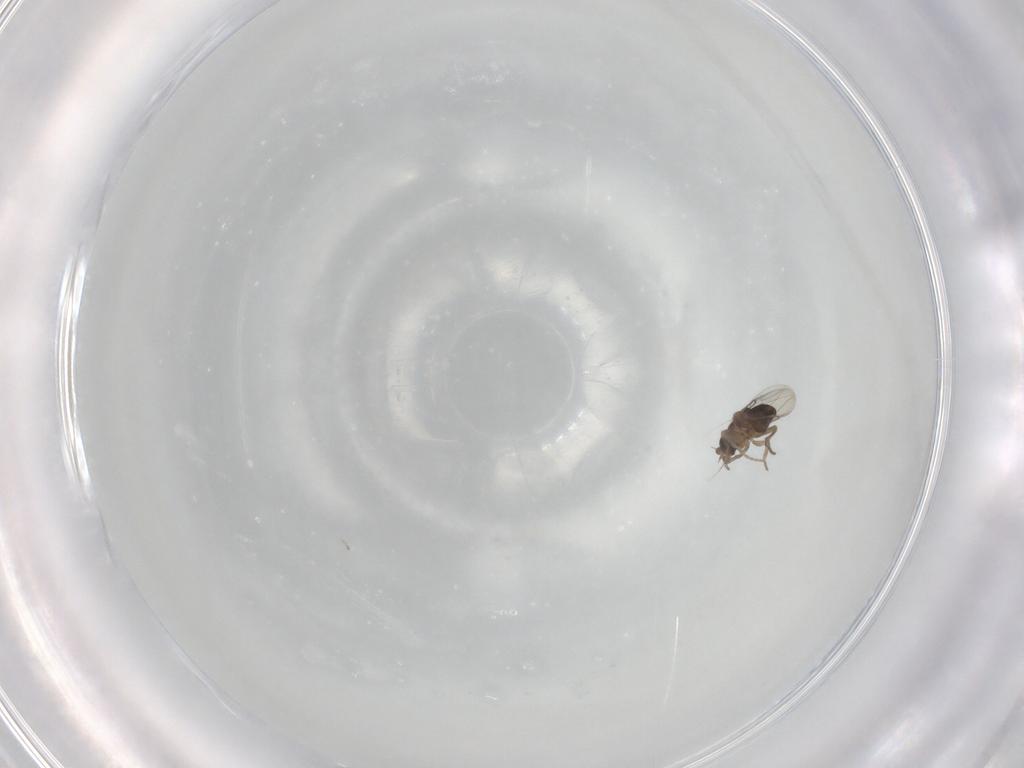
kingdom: Animalia
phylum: Arthropoda
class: Insecta
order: Diptera
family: Phoridae
